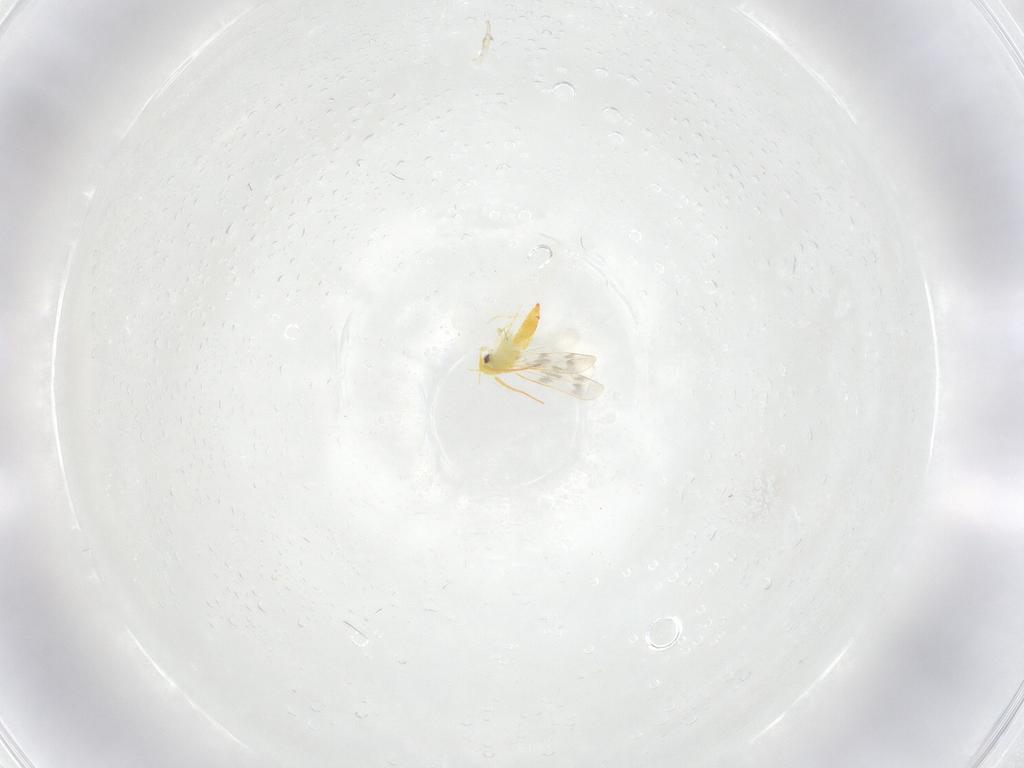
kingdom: Animalia
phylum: Arthropoda
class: Insecta
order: Hemiptera
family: Aleyrodidae
